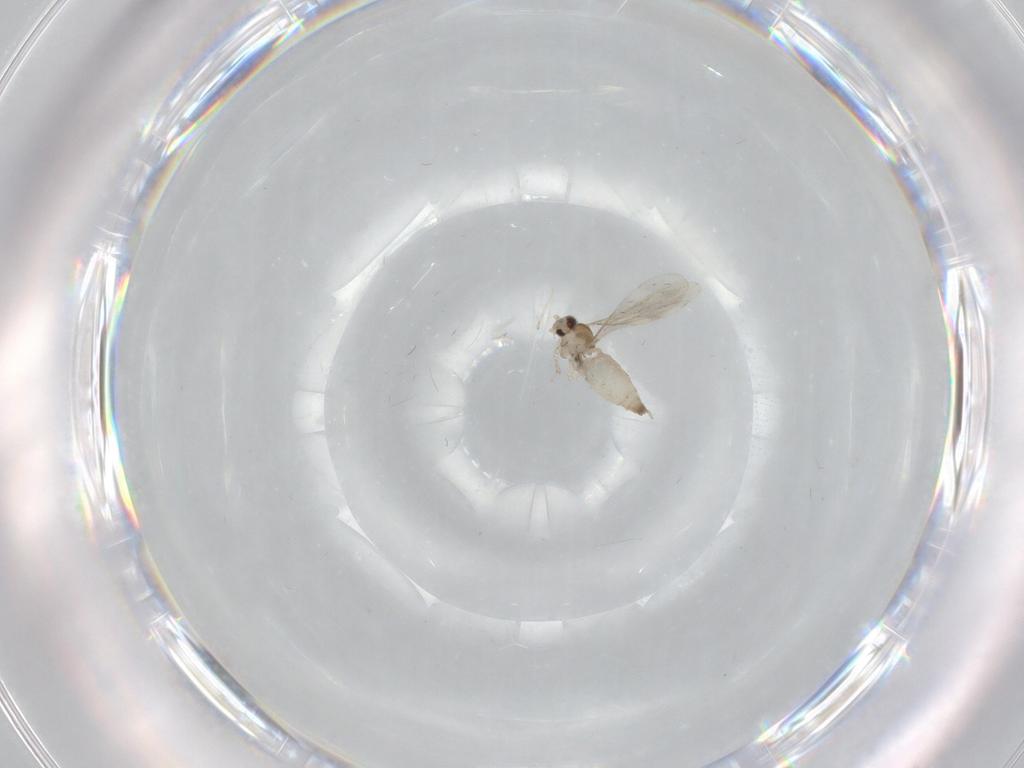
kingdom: Animalia
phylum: Arthropoda
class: Insecta
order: Diptera
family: Cecidomyiidae
